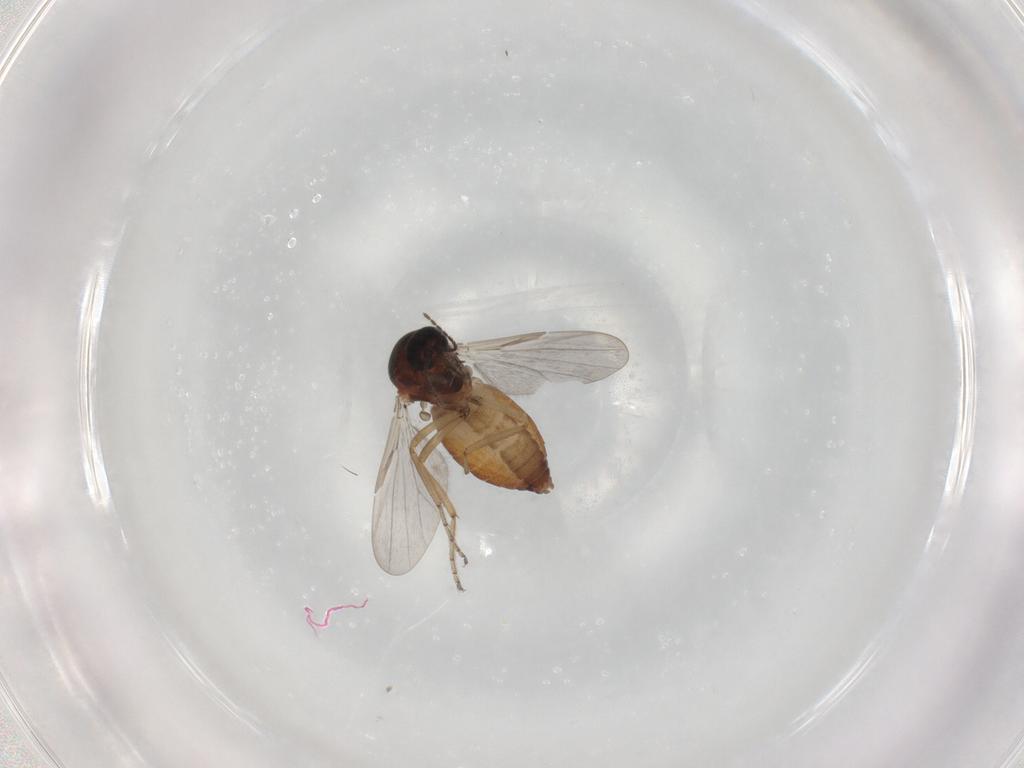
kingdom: Animalia
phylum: Arthropoda
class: Insecta
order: Diptera
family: Ceratopogonidae
